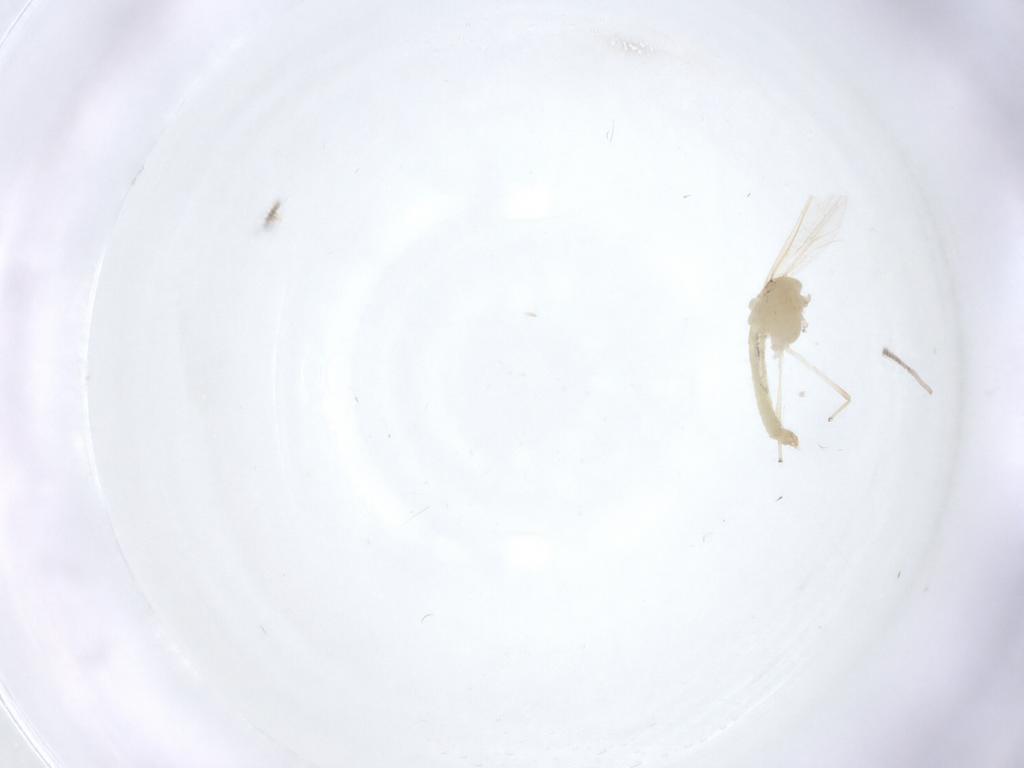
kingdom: Animalia
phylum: Arthropoda
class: Insecta
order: Diptera
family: Chironomidae
